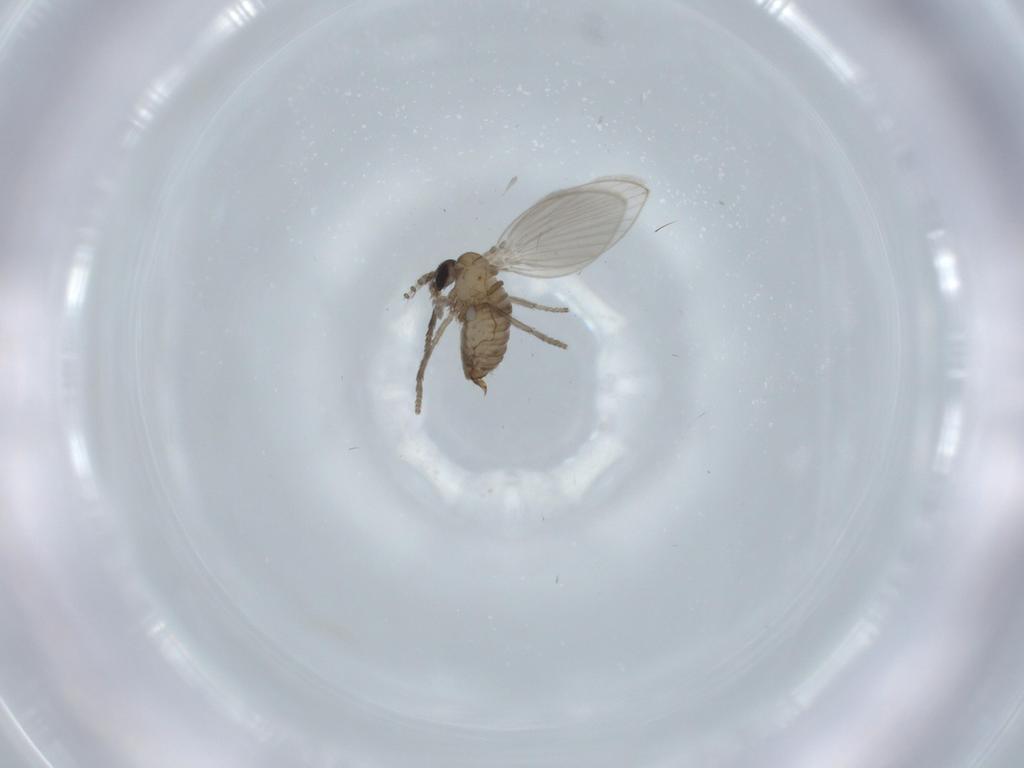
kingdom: Animalia
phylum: Arthropoda
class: Insecta
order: Diptera
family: Psychodidae
